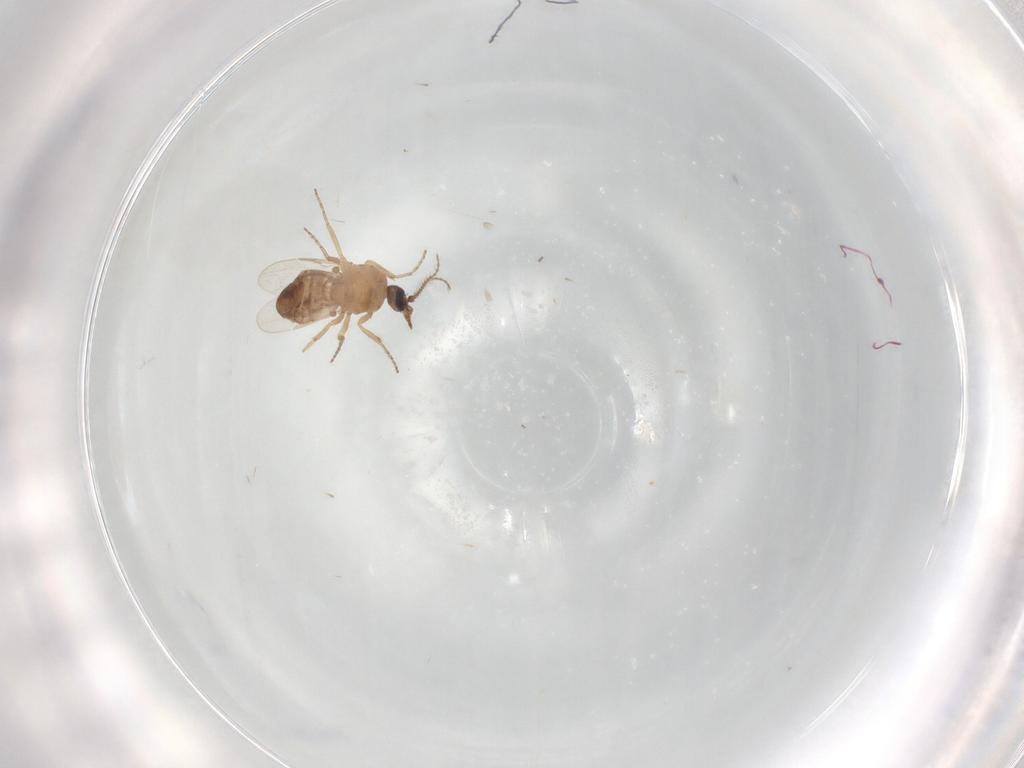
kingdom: Animalia
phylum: Arthropoda
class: Insecta
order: Diptera
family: Ceratopogonidae
